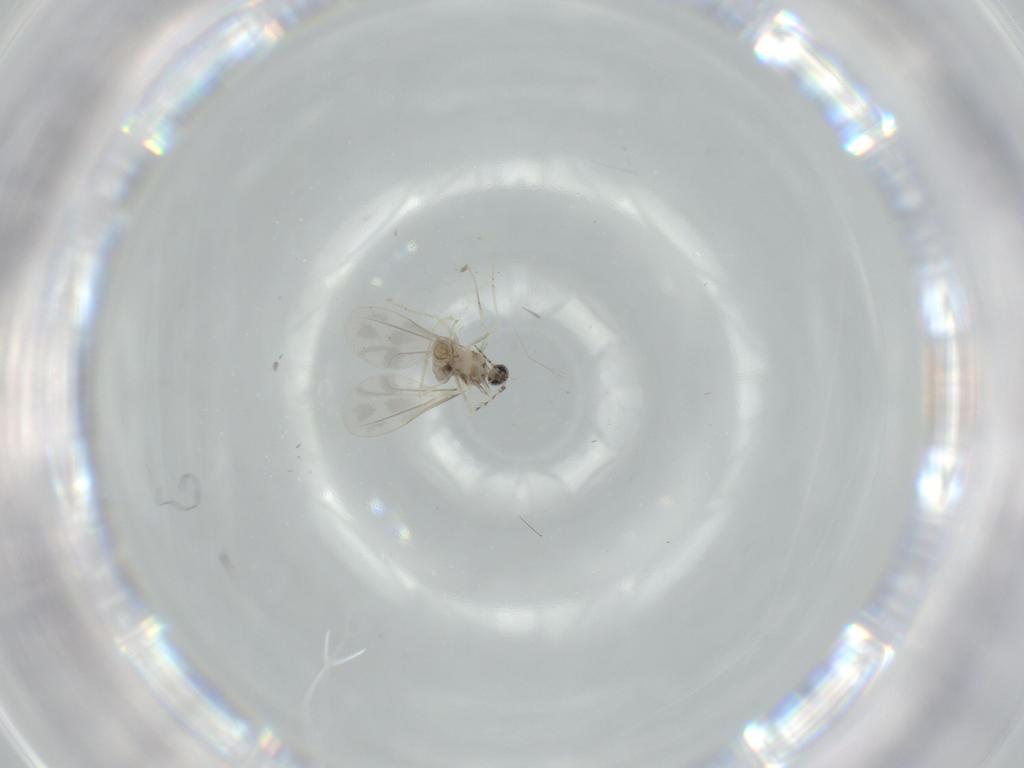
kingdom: Animalia
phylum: Arthropoda
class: Insecta
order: Diptera
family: Cecidomyiidae
